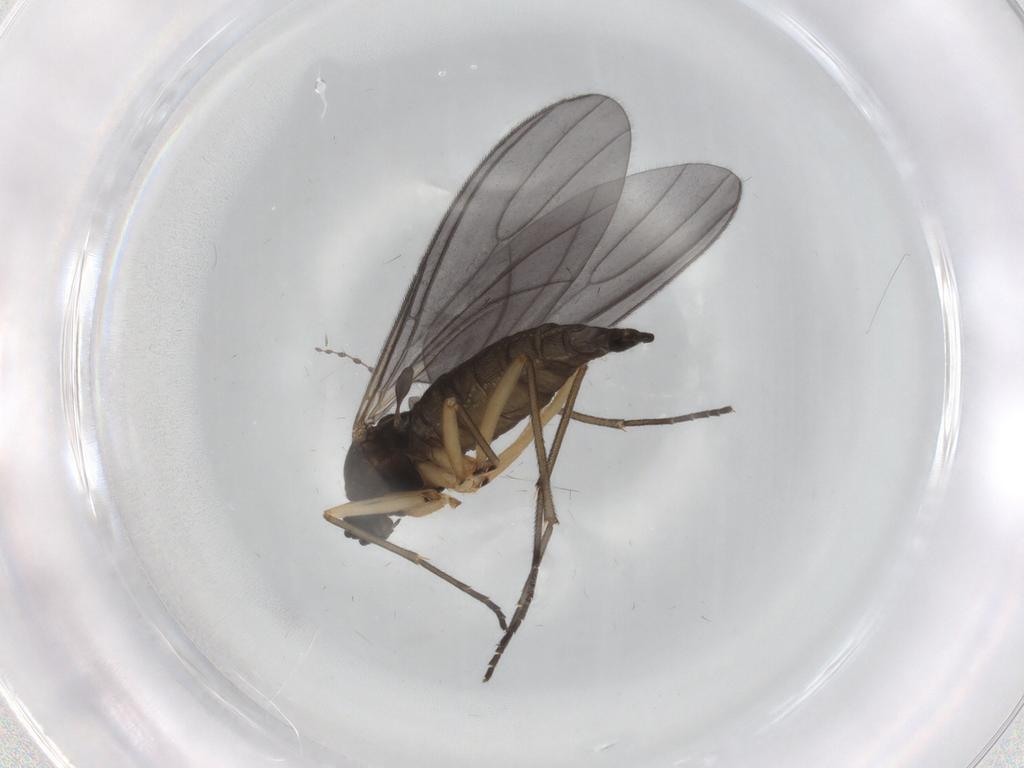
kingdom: Animalia
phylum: Arthropoda
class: Insecta
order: Diptera
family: Sciaridae
